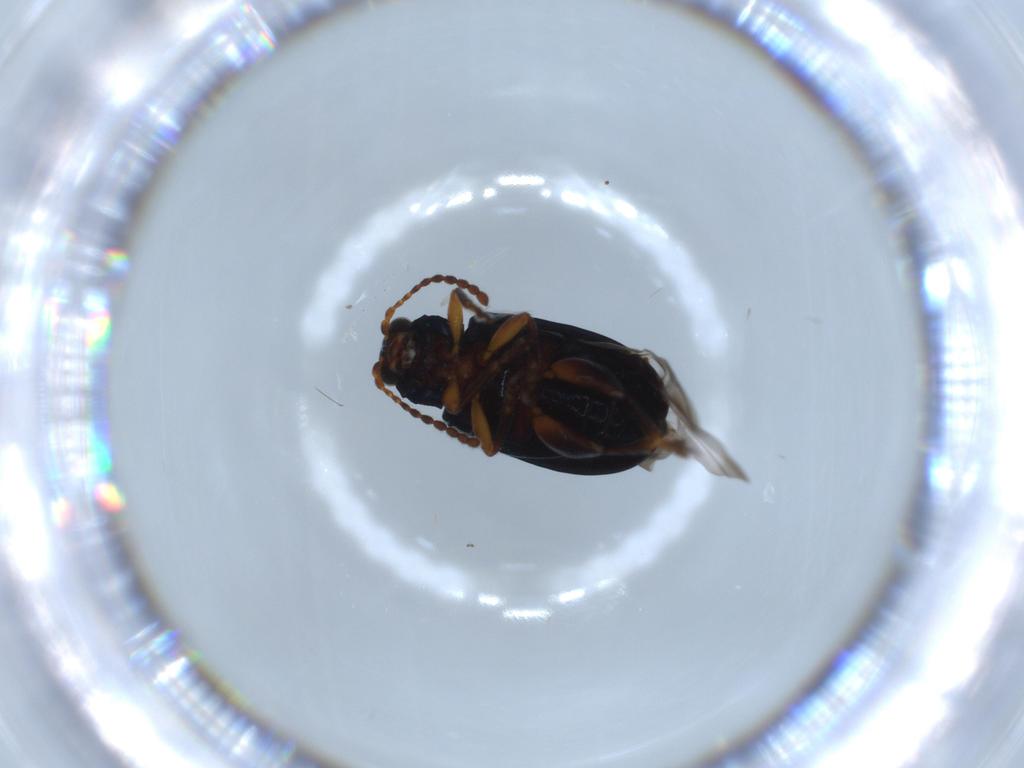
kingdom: Animalia
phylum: Arthropoda
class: Insecta
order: Coleoptera
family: Chrysomelidae
